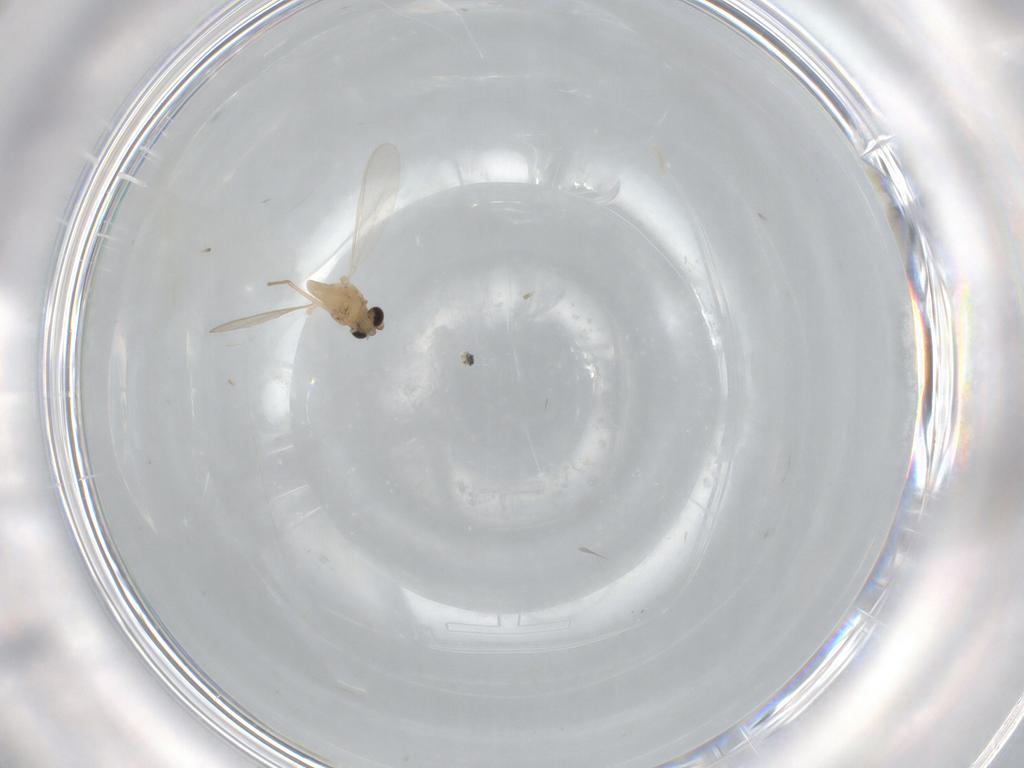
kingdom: Animalia
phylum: Arthropoda
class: Insecta
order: Diptera
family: Chironomidae
